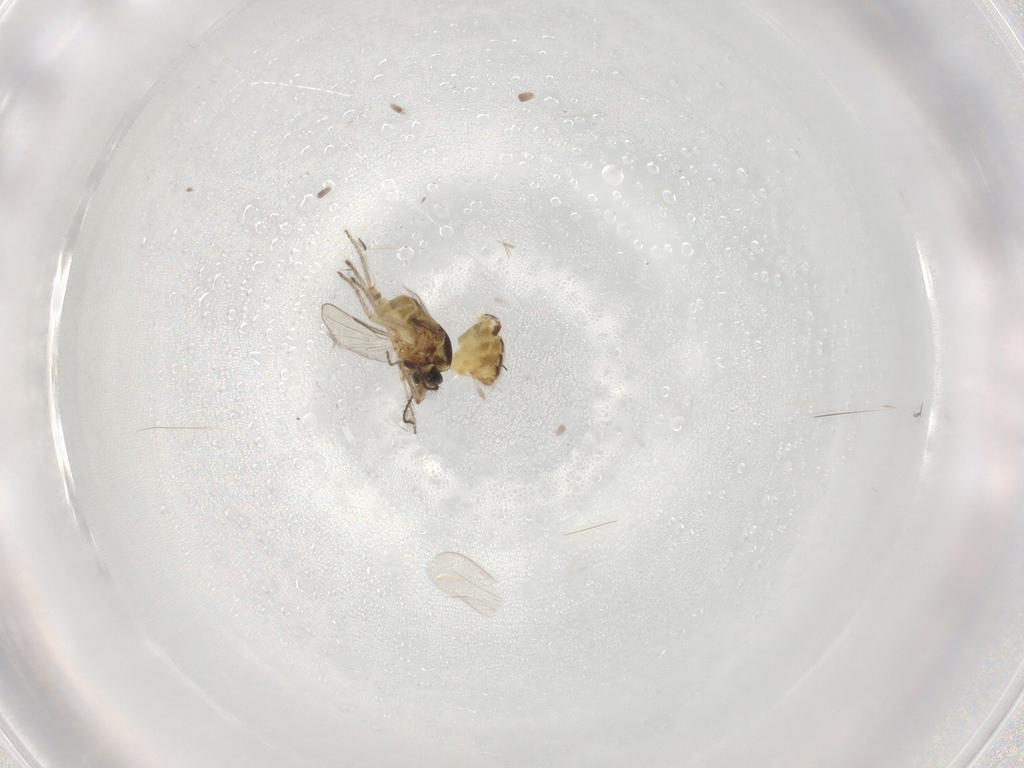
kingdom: Animalia
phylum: Arthropoda
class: Insecta
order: Diptera
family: Ceratopogonidae
